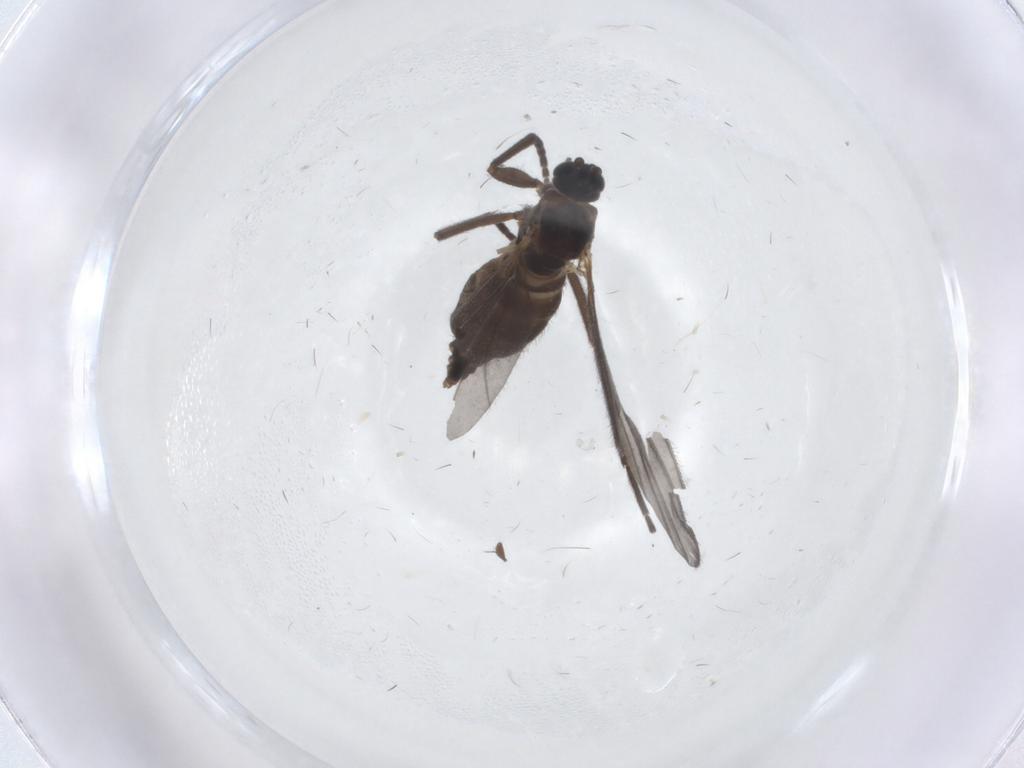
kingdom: Animalia
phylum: Arthropoda
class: Insecta
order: Diptera
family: Sciaridae
